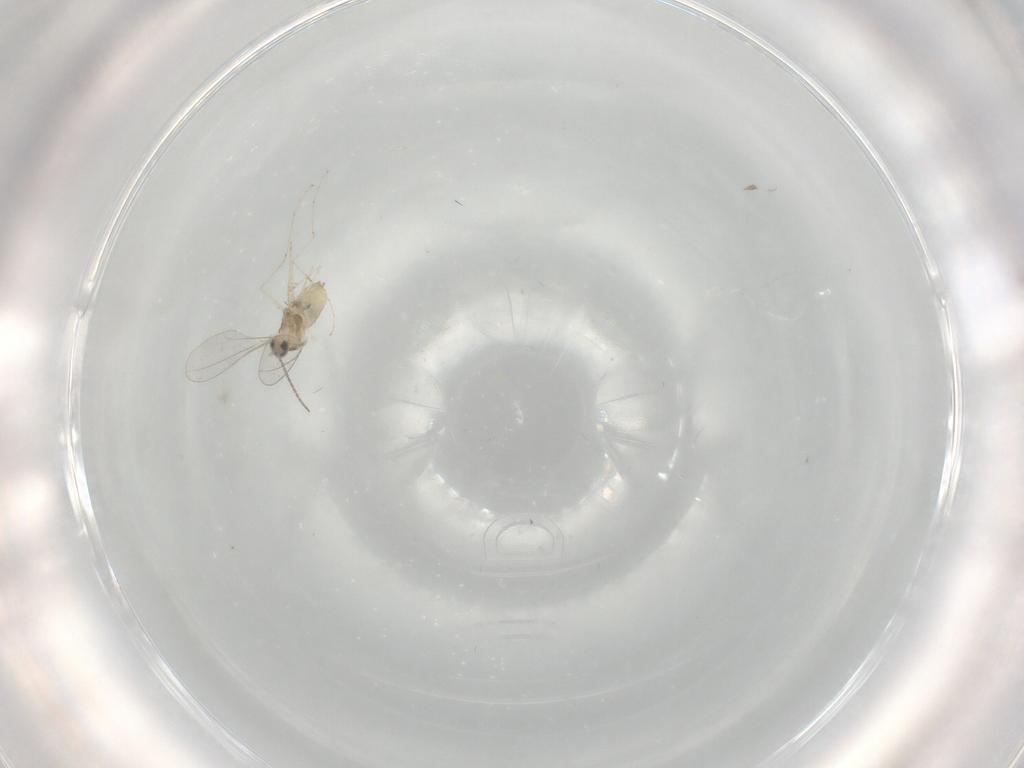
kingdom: Animalia
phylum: Arthropoda
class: Insecta
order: Diptera
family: Cecidomyiidae
